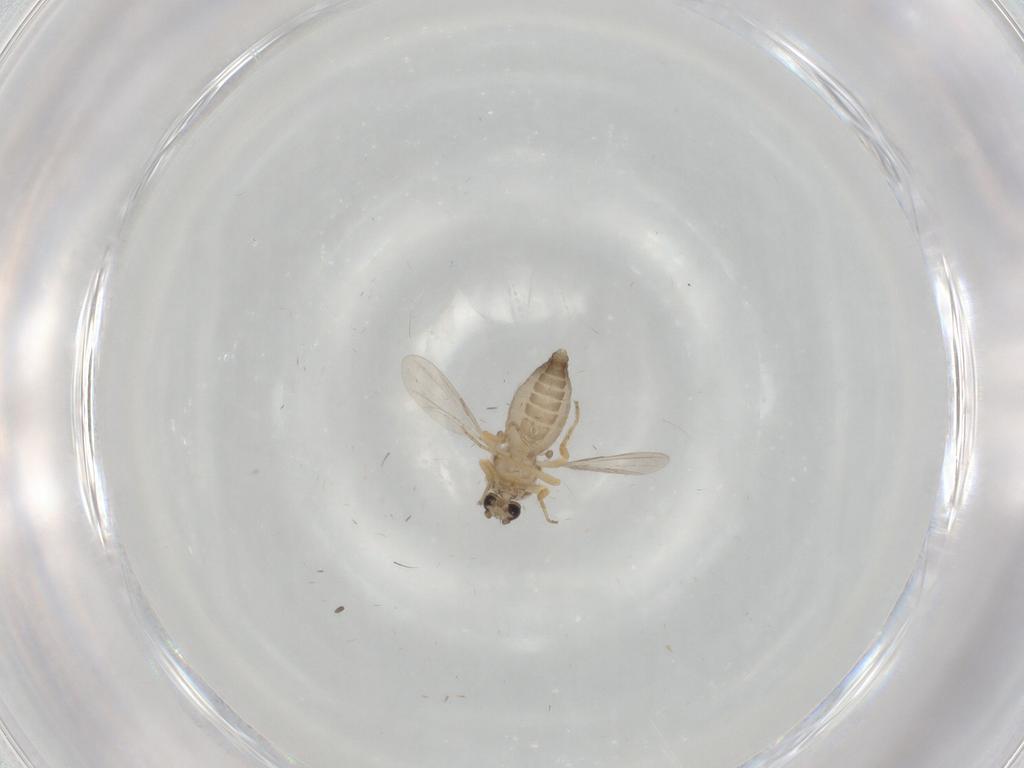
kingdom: Animalia
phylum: Arthropoda
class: Insecta
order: Diptera
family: Ceratopogonidae
